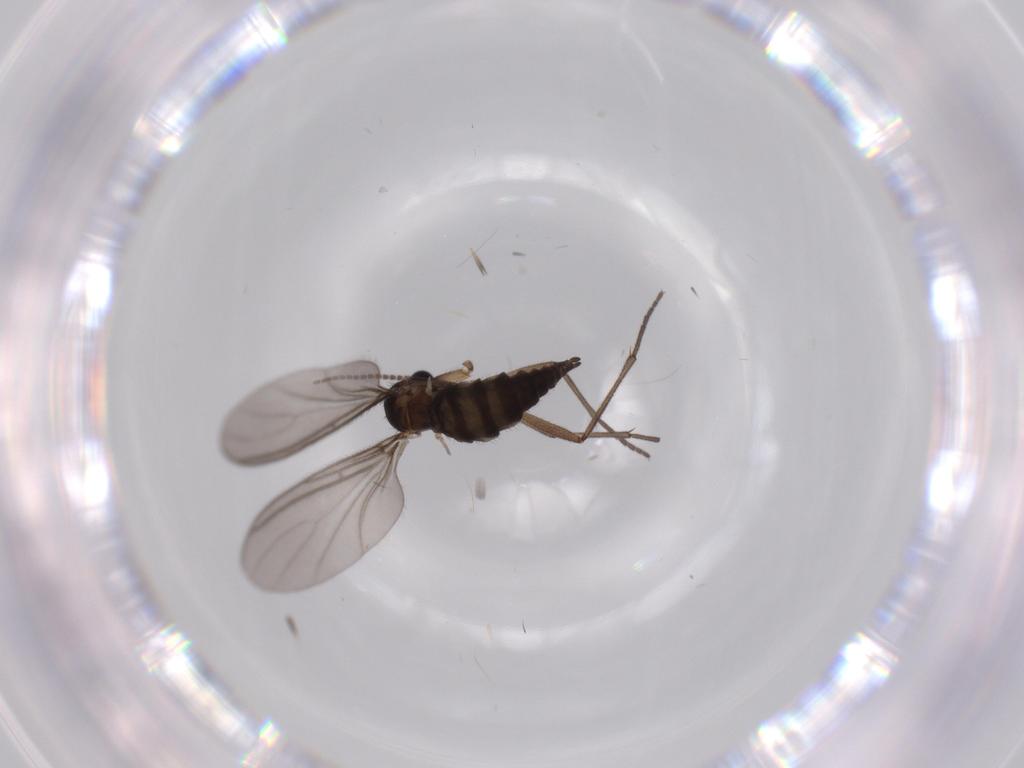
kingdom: Animalia
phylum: Arthropoda
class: Insecta
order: Diptera
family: Sciaridae
